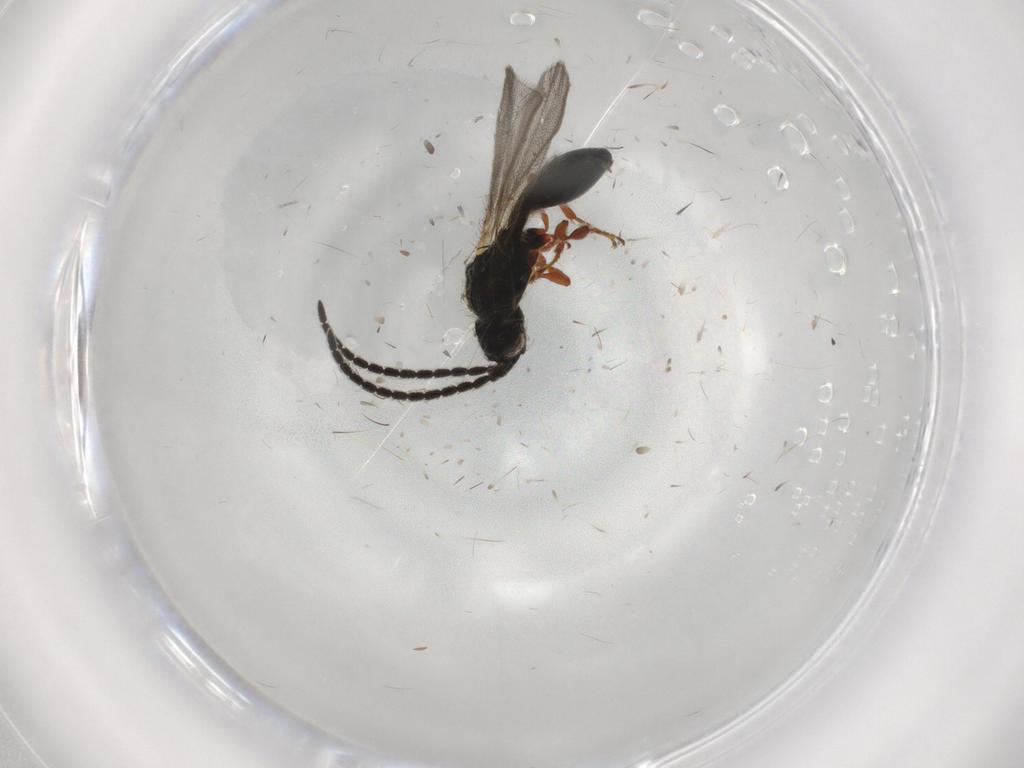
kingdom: Animalia
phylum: Arthropoda
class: Insecta
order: Hymenoptera
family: Diapriidae
